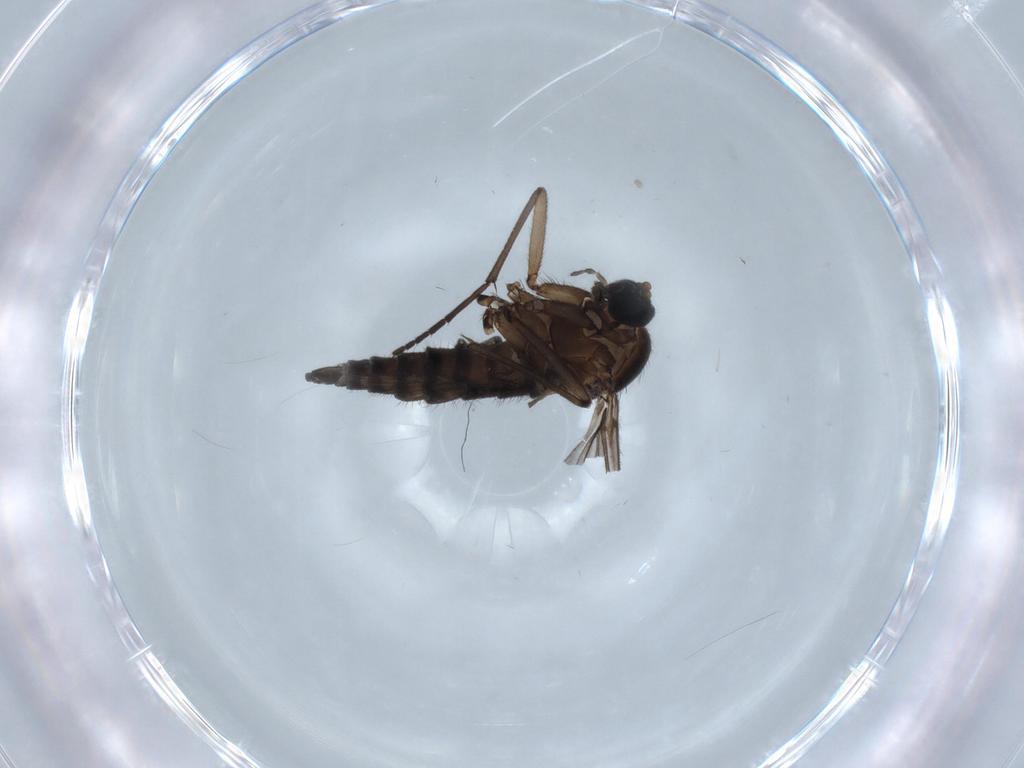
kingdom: Animalia
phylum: Arthropoda
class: Insecta
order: Diptera
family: Sciaridae
